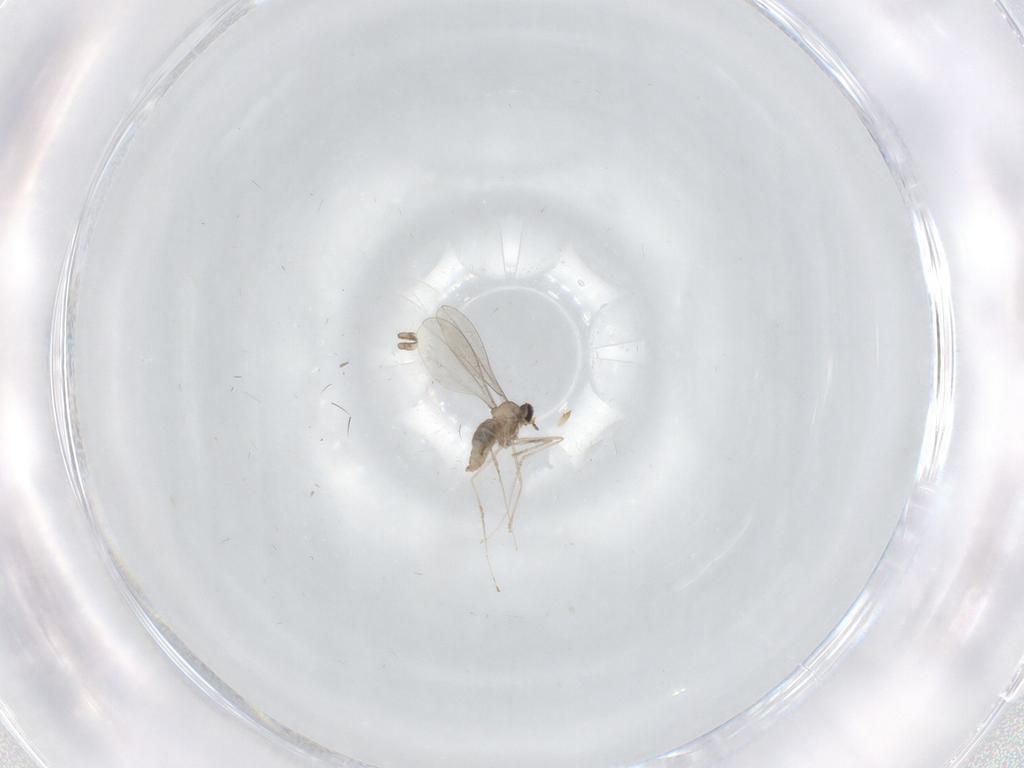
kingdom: Animalia
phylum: Arthropoda
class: Insecta
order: Diptera
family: Cecidomyiidae
